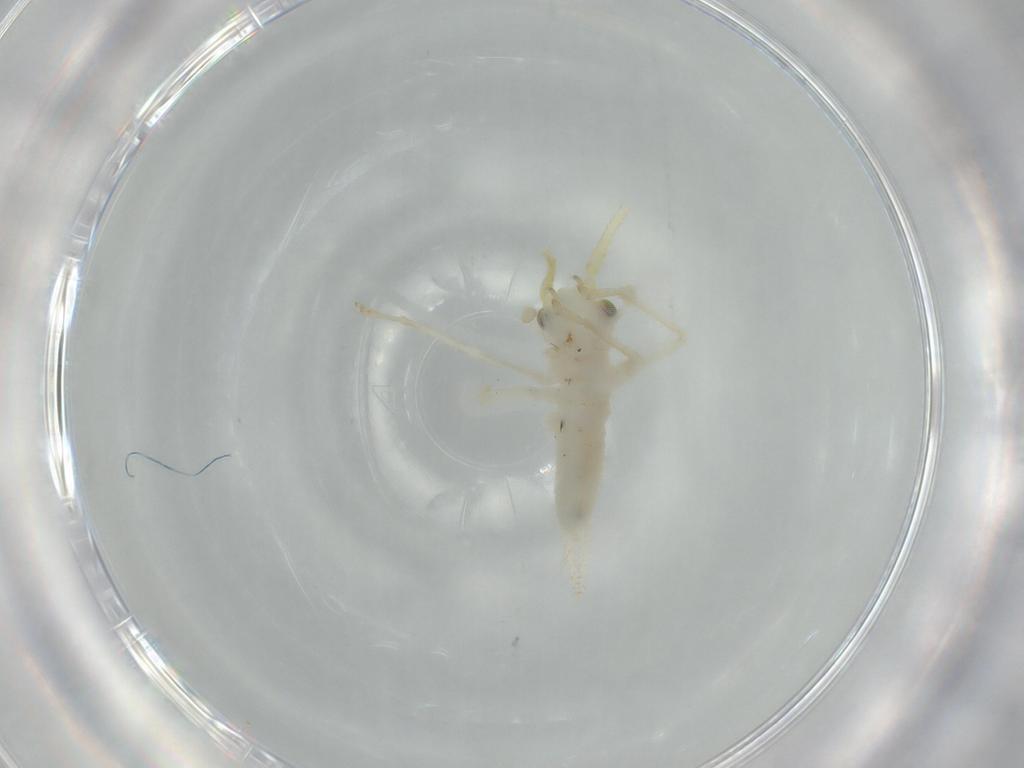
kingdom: Animalia
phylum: Arthropoda
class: Insecta
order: Orthoptera
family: Trigonidiidae
